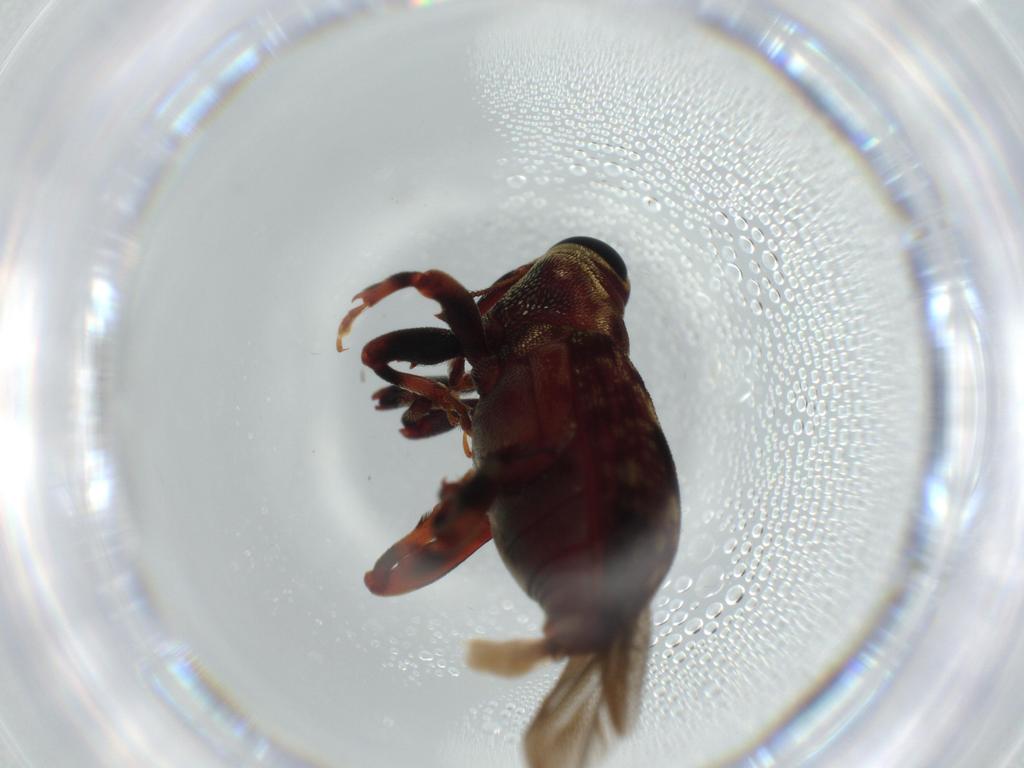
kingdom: Animalia
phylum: Arthropoda
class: Insecta
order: Coleoptera
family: Curculionidae
